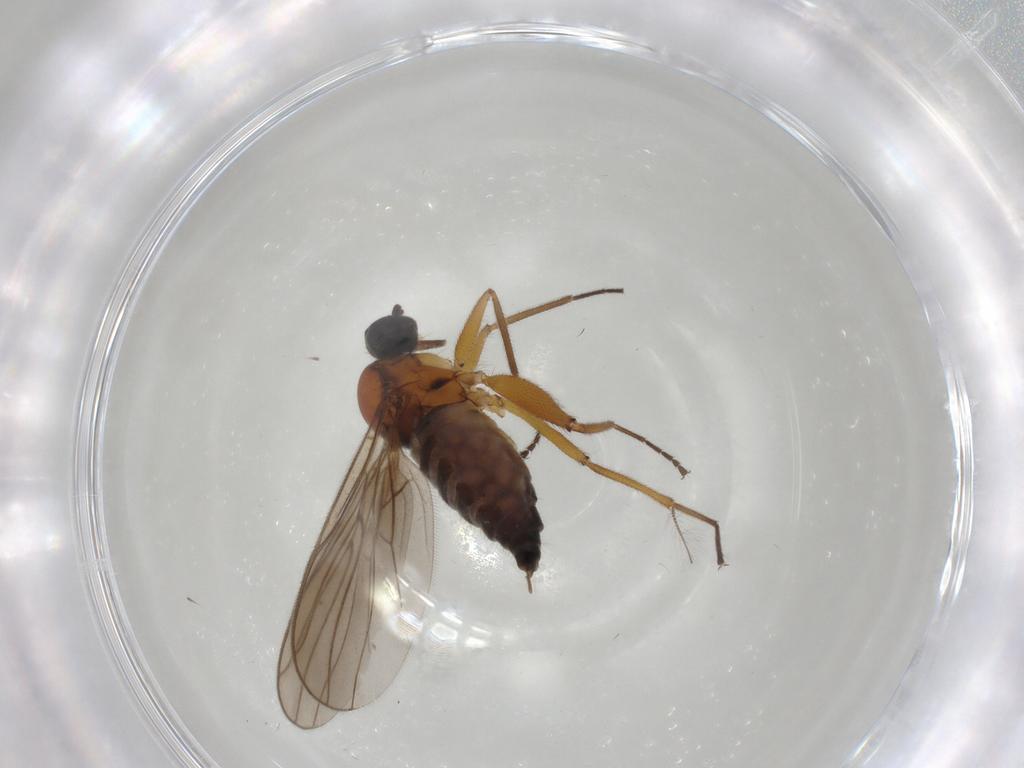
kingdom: Animalia
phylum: Arthropoda
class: Insecta
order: Diptera
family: Hybotidae
